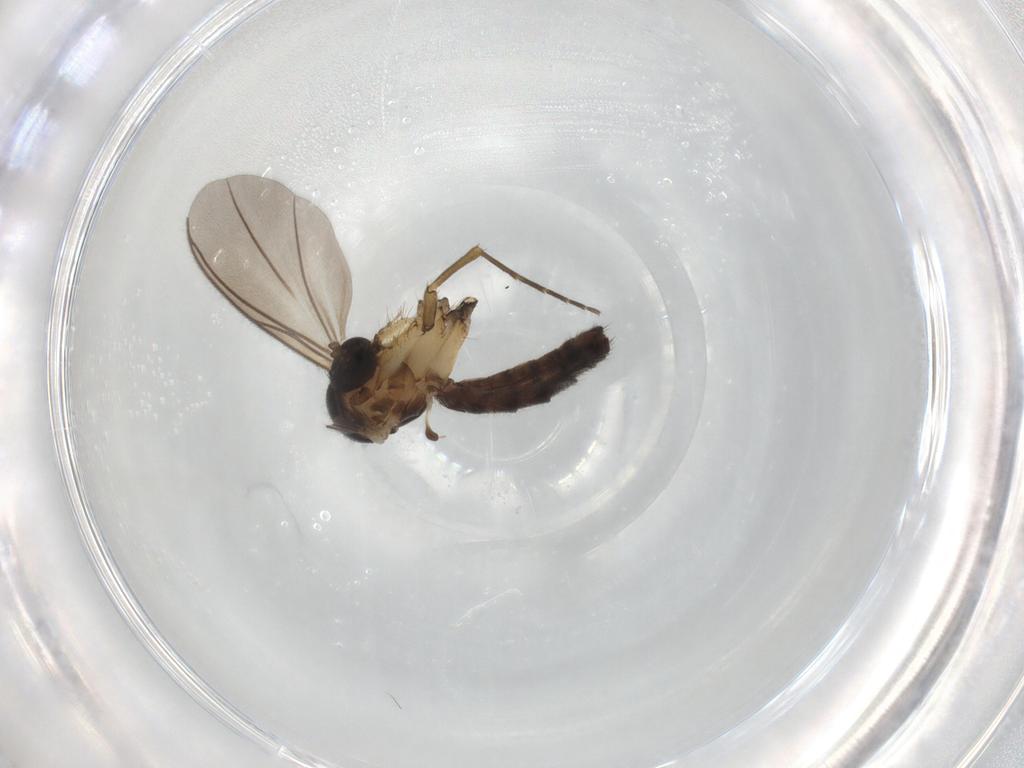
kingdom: Animalia
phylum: Arthropoda
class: Insecta
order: Diptera
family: Mycetophilidae
